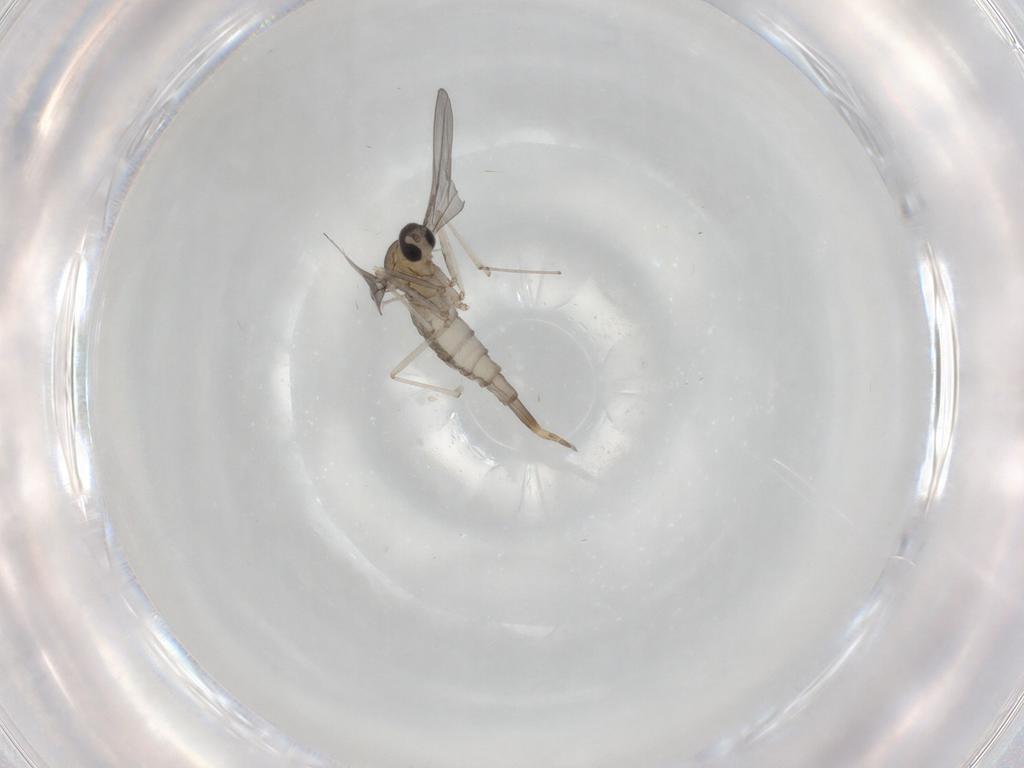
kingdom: Animalia
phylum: Arthropoda
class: Insecta
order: Diptera
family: Cecidomyiidae
